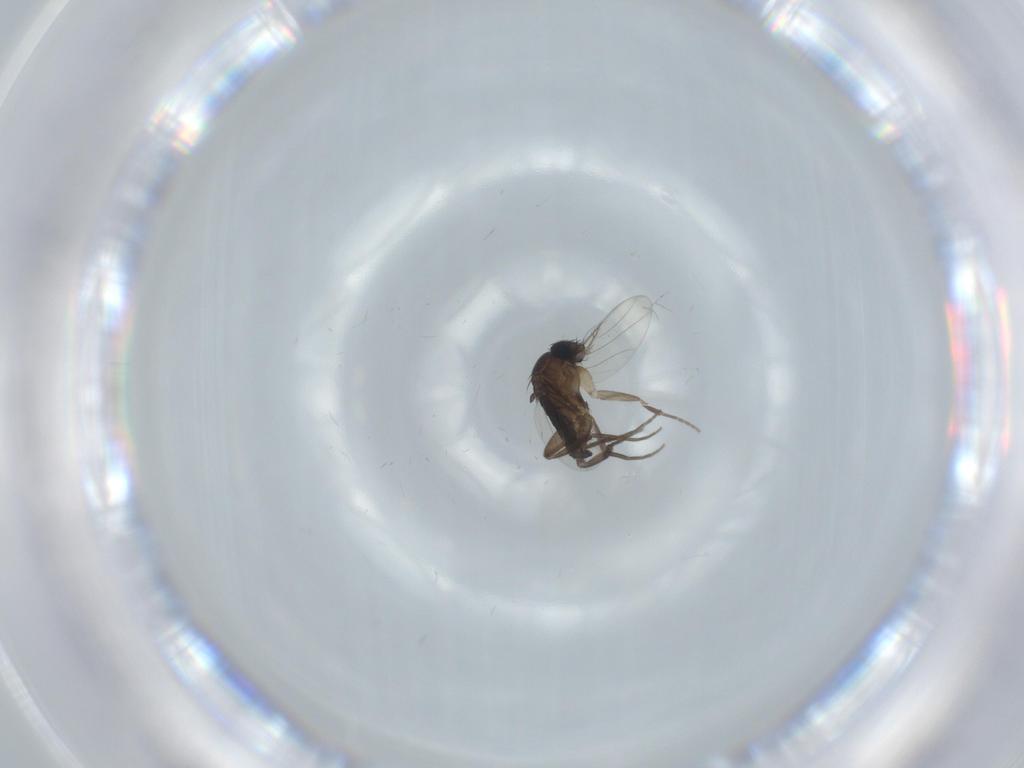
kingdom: Animalia
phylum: Arthropoda
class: Insecta
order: Diptera
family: Phoridae
